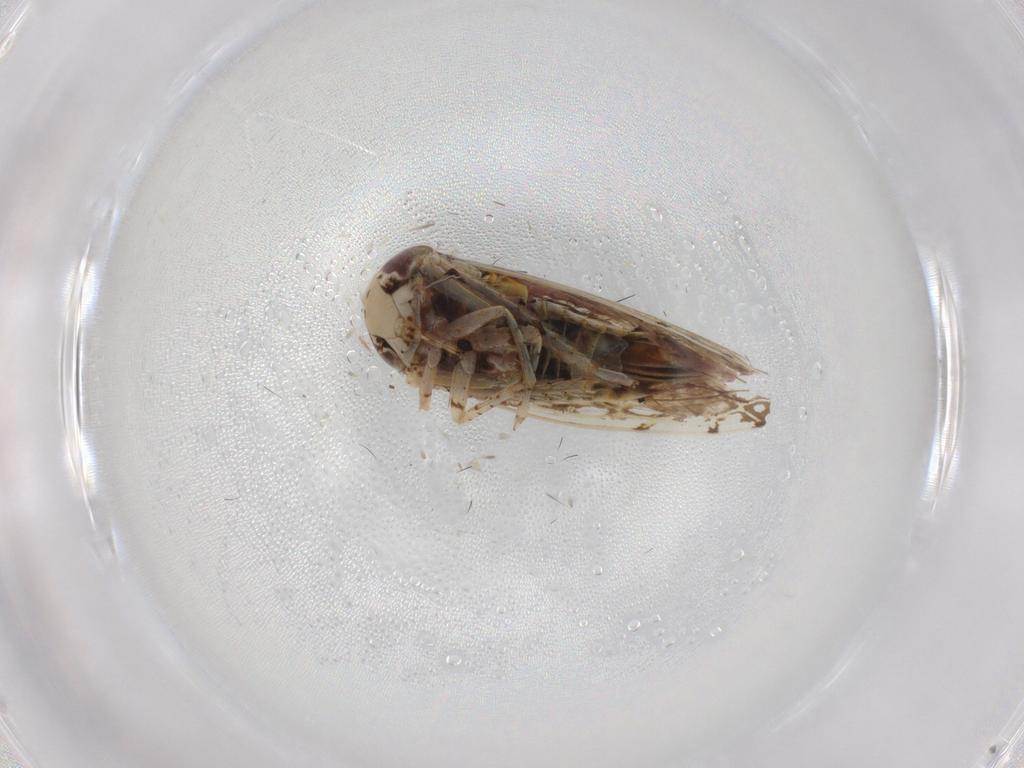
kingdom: Animalia
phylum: Arthropoda
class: Insecta
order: Hemiptera
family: Cicadellidae
